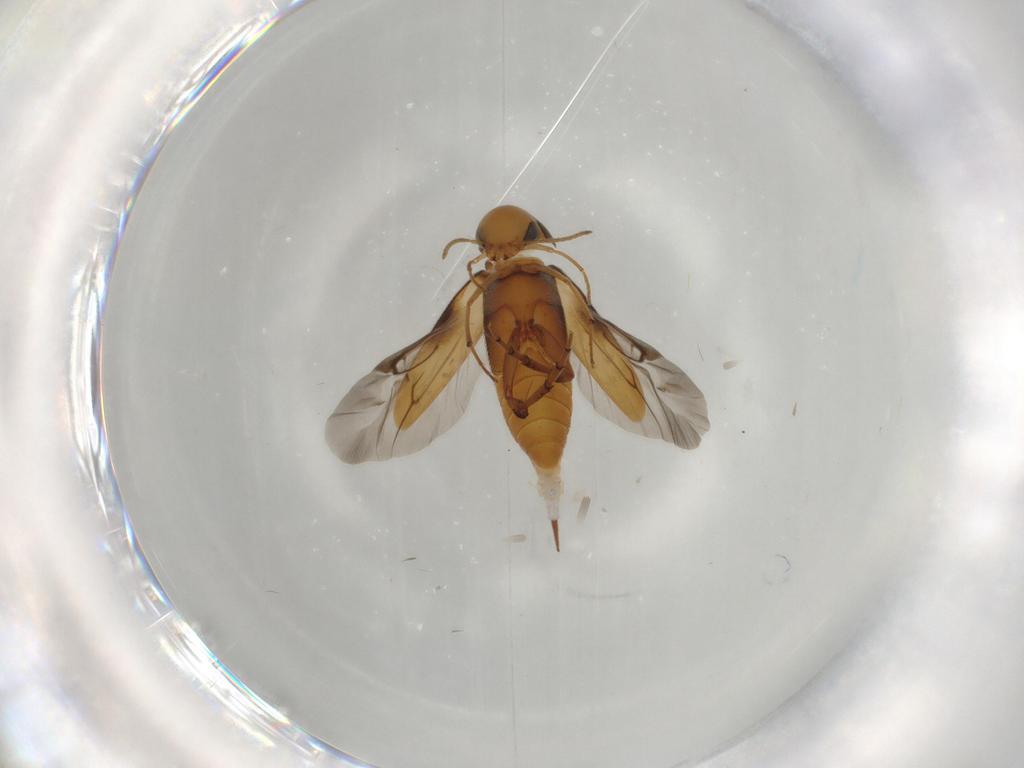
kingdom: Animalia
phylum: Arthropoda
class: Insecta
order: Coleoptera
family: Mordellidae
